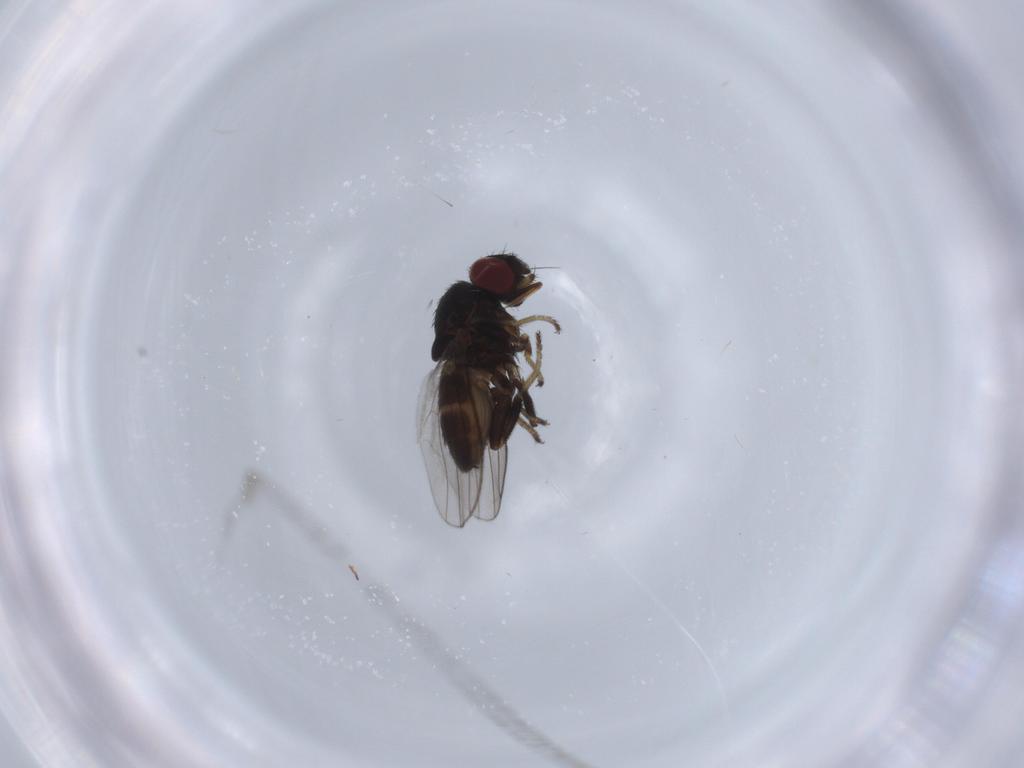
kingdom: Animalia
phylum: Arthropoda
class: Insecta
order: Diptera
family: Milichiidae
